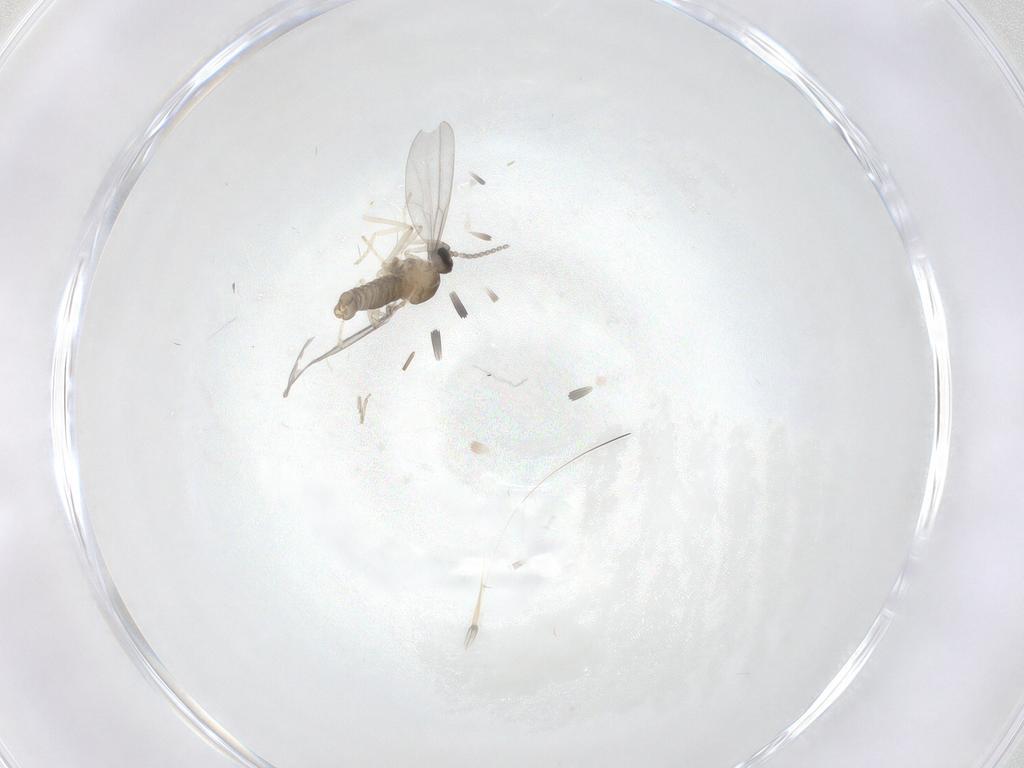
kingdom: Animalia
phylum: Arthropoda
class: Insecta
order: Diptera
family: Cecidomyiidae
